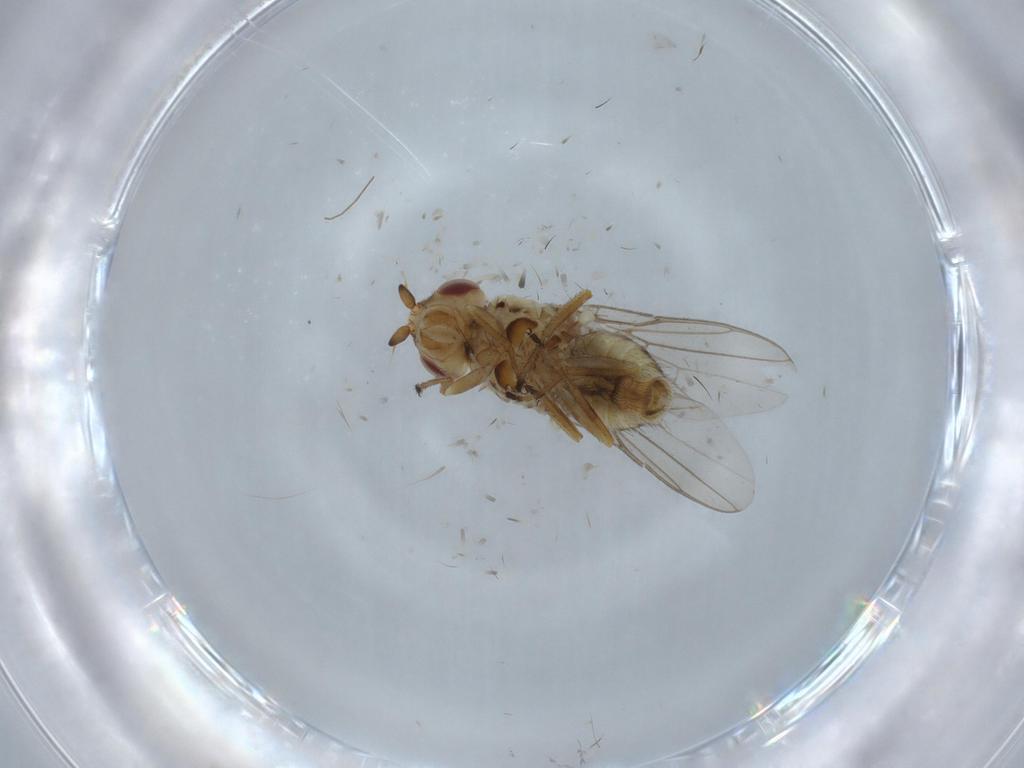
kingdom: Animalia
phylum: Arthropoda
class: Insecta
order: Diptera
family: Chloropidae
